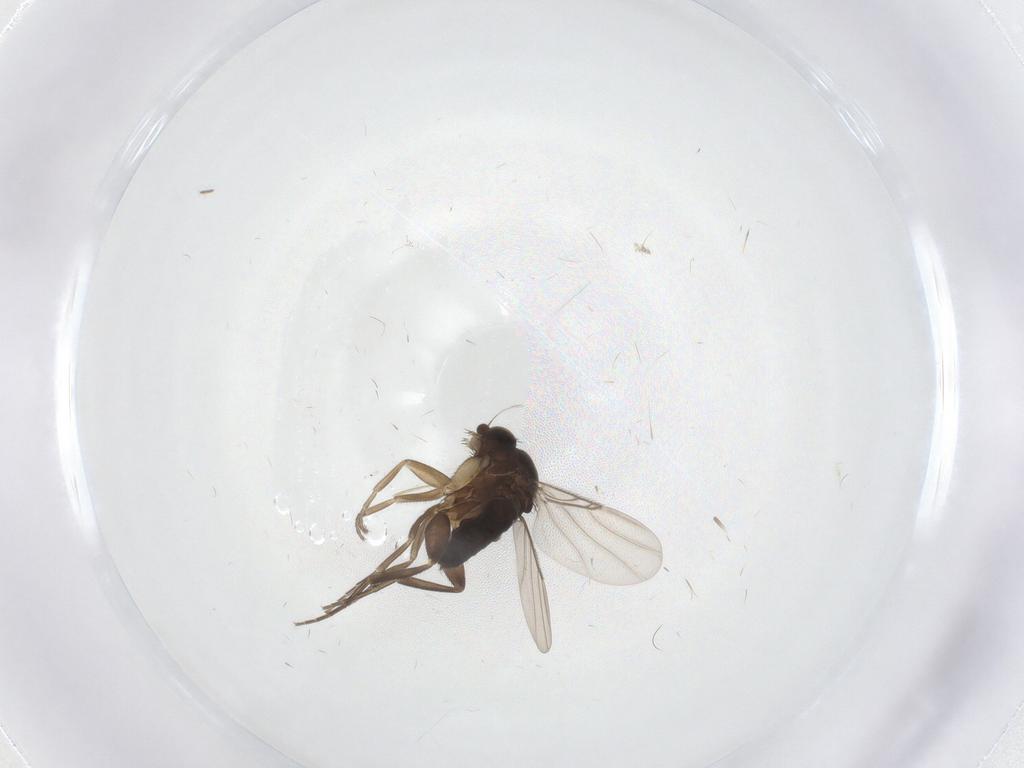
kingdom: Animalia
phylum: Arthropoda
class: Insecta
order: Diptera
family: Phoridae
